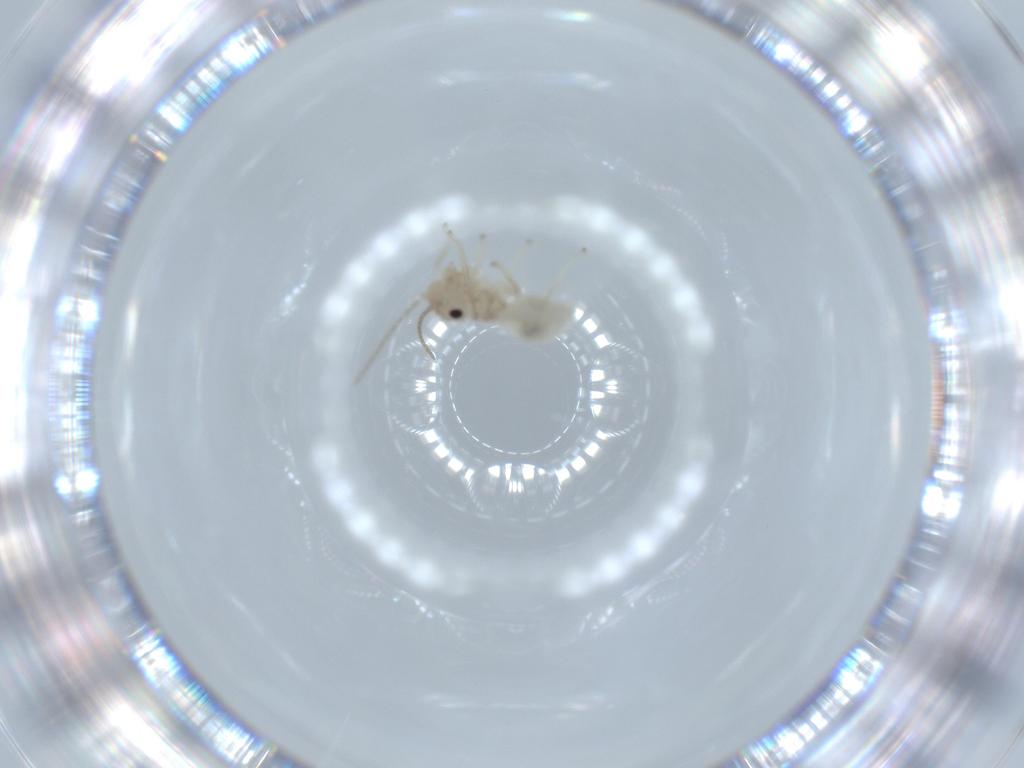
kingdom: Animalia
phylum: Arthropoda
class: Insecta
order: Psocodea
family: Amphipsocidae
